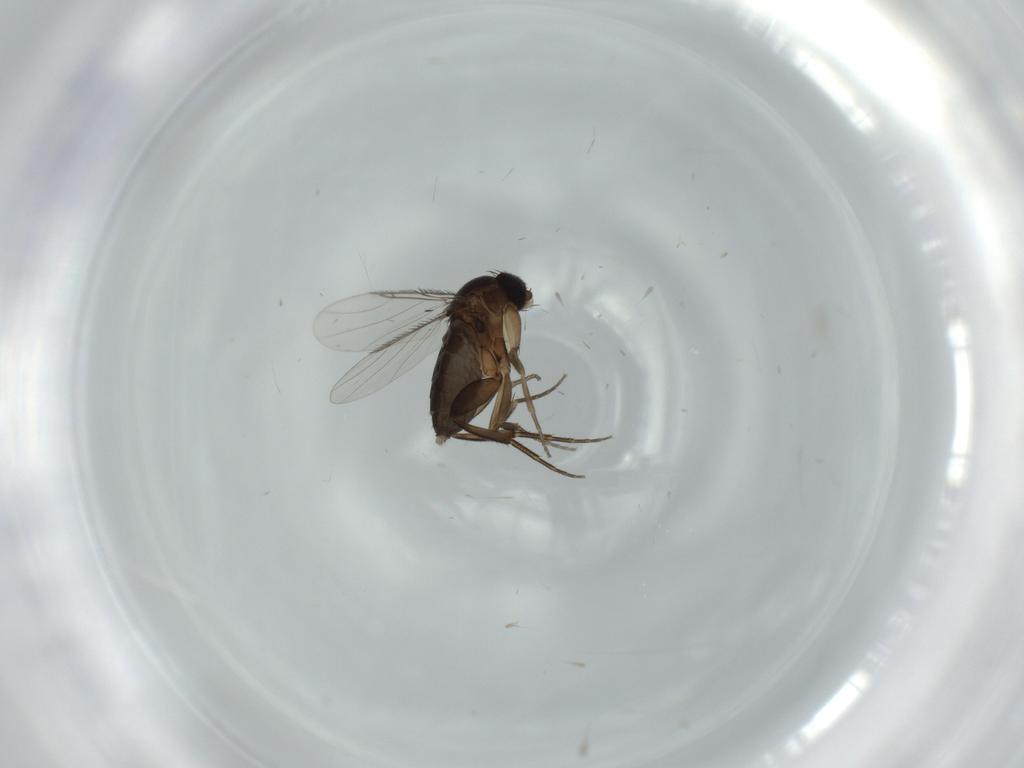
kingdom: Animalia
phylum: Arthropoda
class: Insecta
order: Diptera
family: Phoridae
